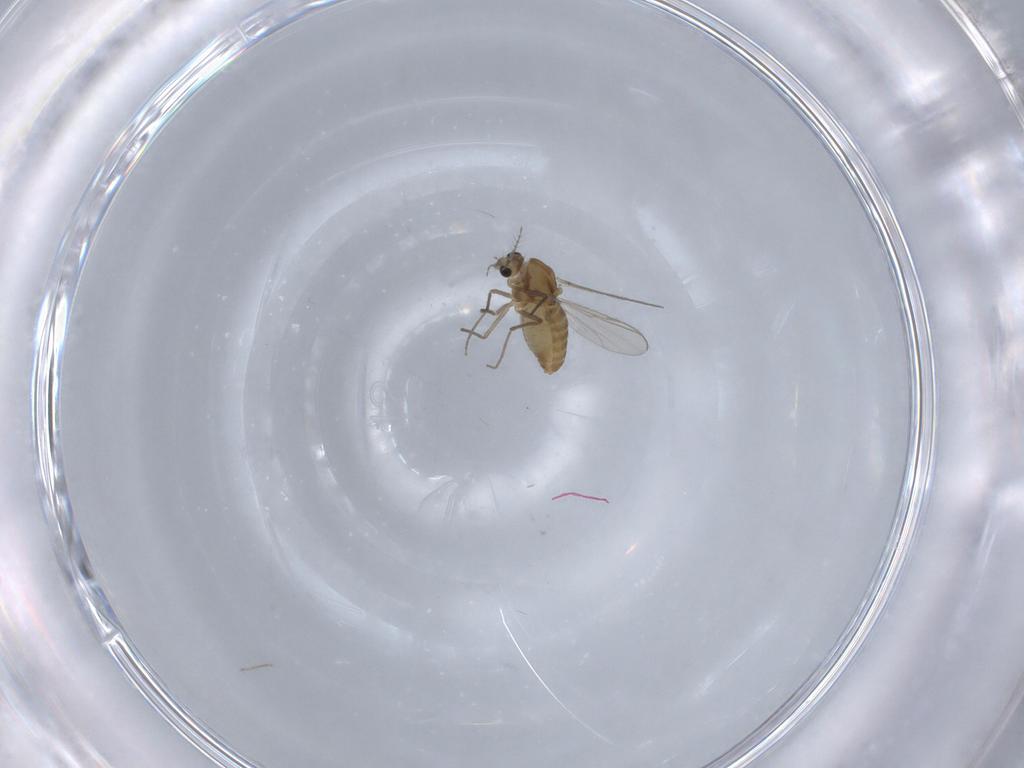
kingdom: Animalia
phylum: Arthropoda
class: Insecta
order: Diptera
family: Chironomidae
